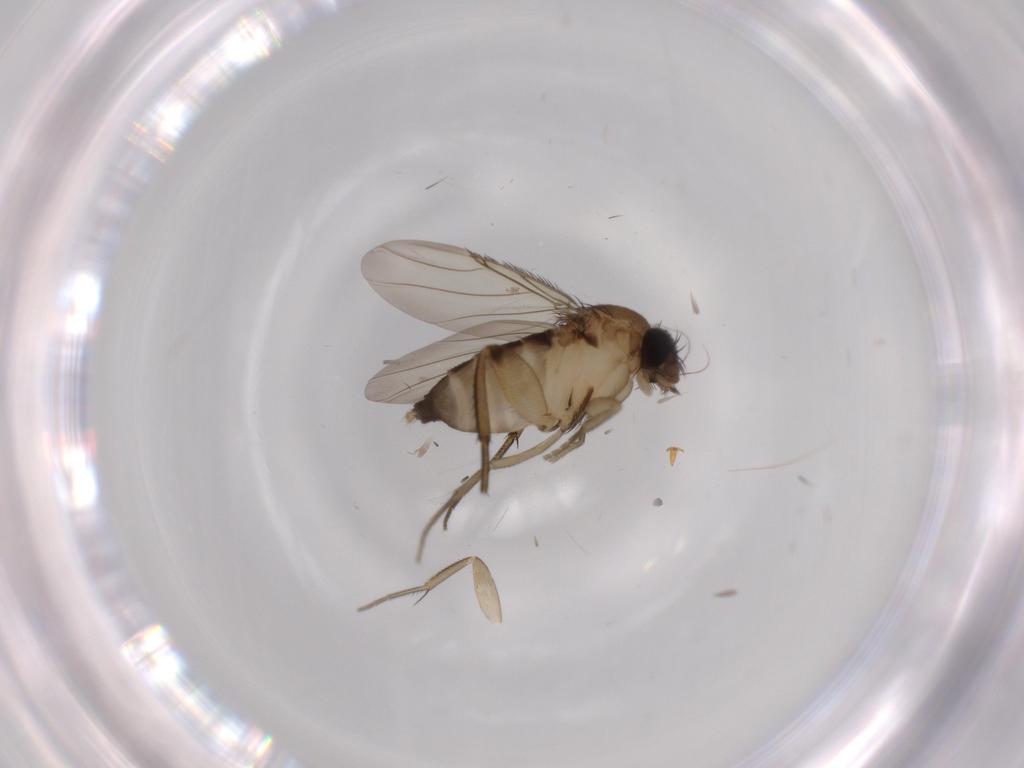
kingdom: Animalia
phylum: Arthropoda
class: Insecta
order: Diptera
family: Phoridae
